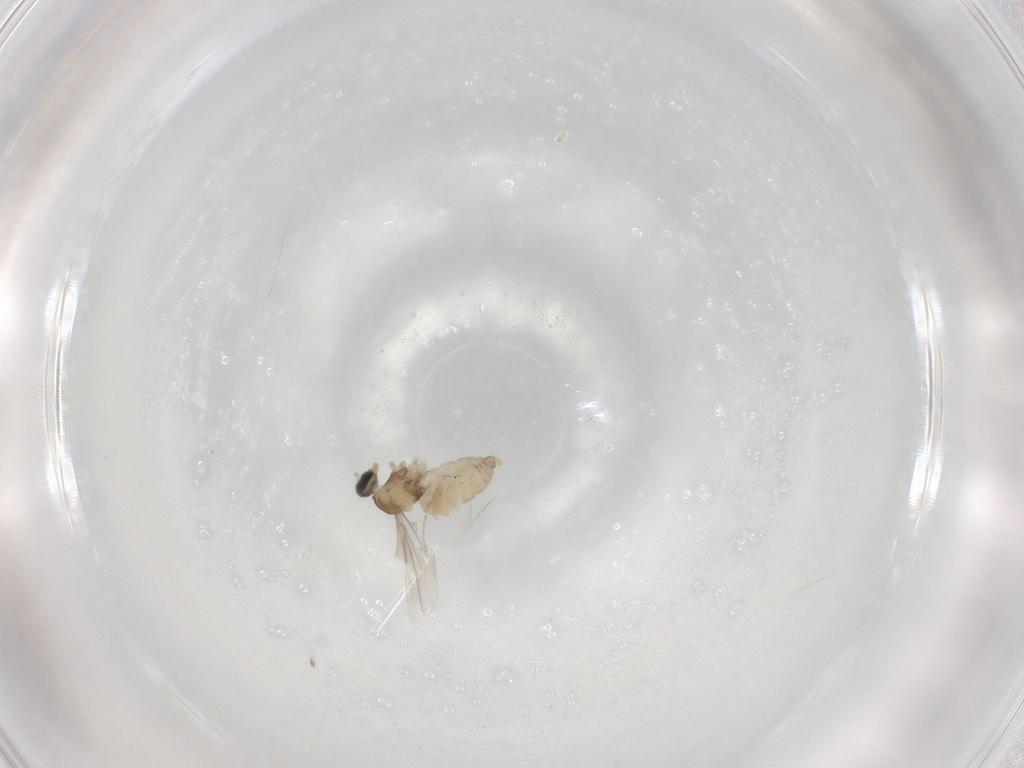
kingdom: Animalia
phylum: Arthropoda
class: Insecta
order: Diptera
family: Cecidomyiidae
